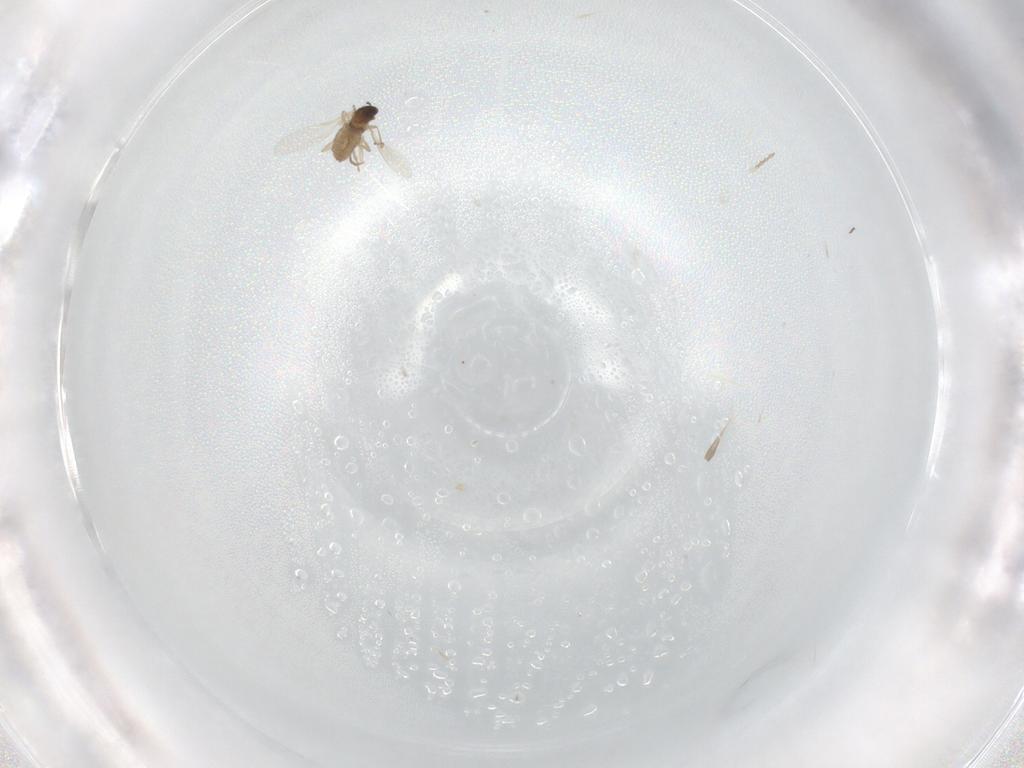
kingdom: Animalia
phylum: Arthropoda
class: Insecta
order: Diptera
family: Cecidomyiidae
